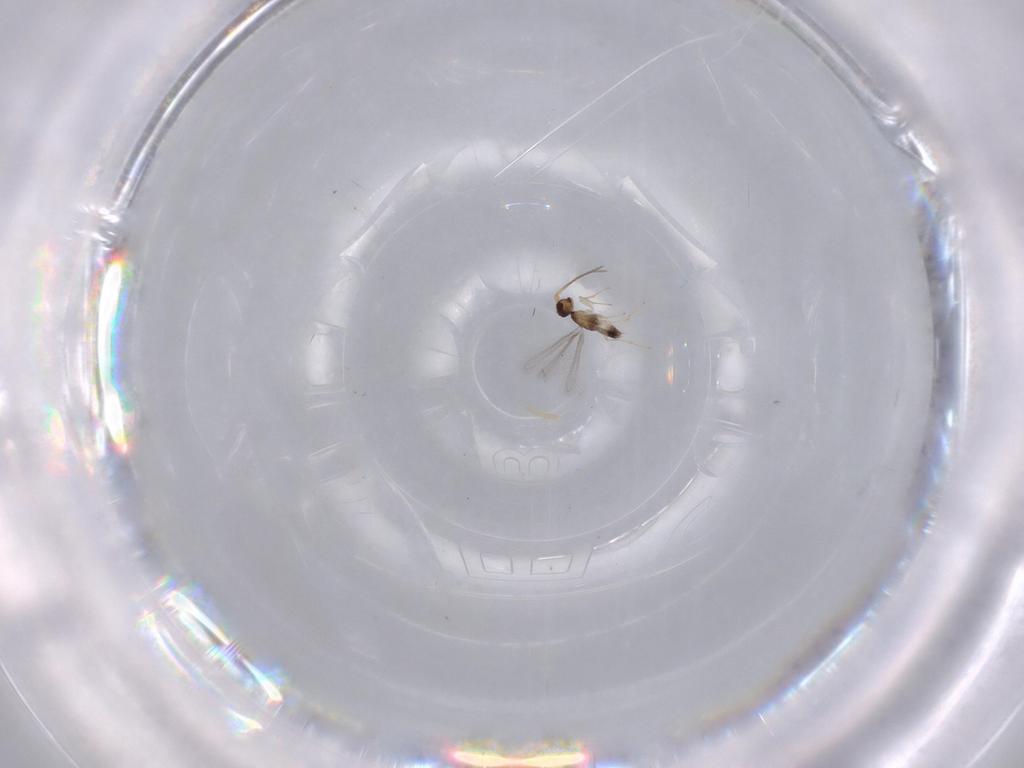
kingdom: Animalia
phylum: Arthropoda
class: Insecta
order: Hymenoptera
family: Mymaridae
